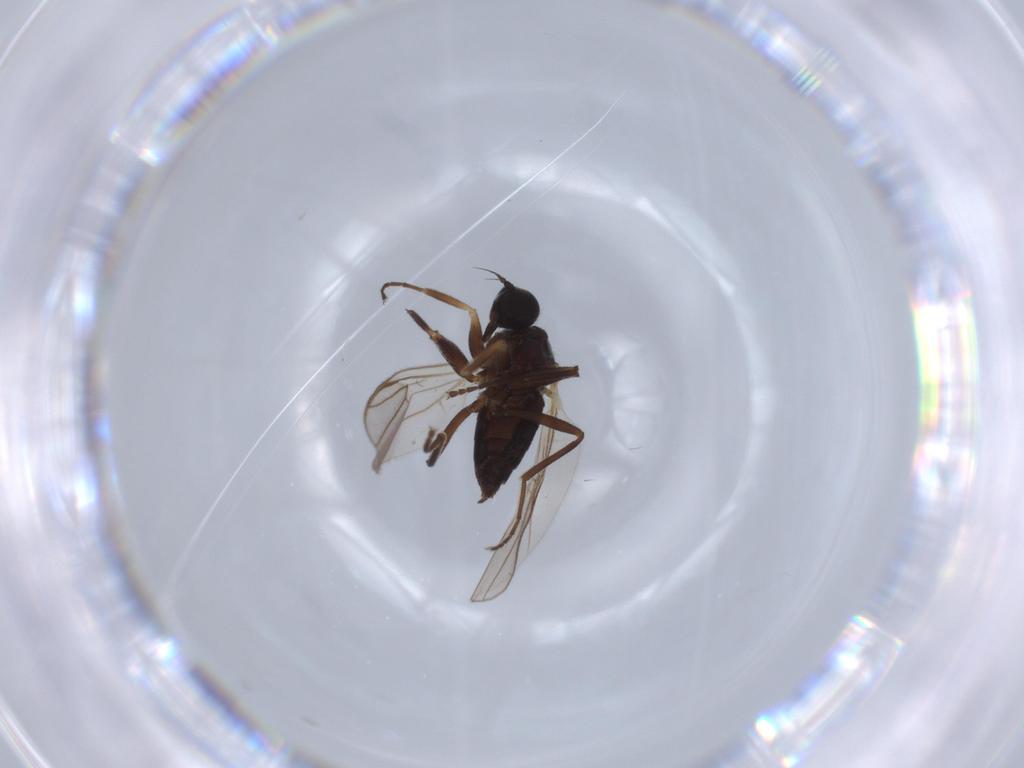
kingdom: Animalia
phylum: Arthropoda
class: Insecta
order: Diptera
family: Hybotidae
